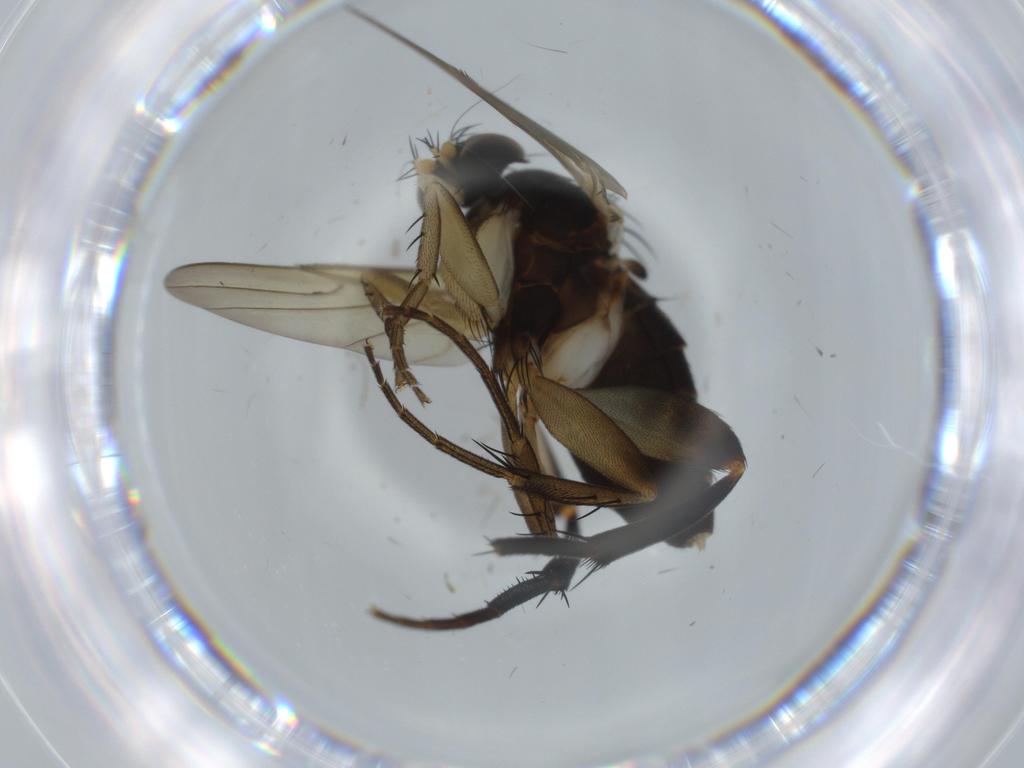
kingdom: Animalia
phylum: Arthropoda
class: Insecta
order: Diptera
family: Phoridae
